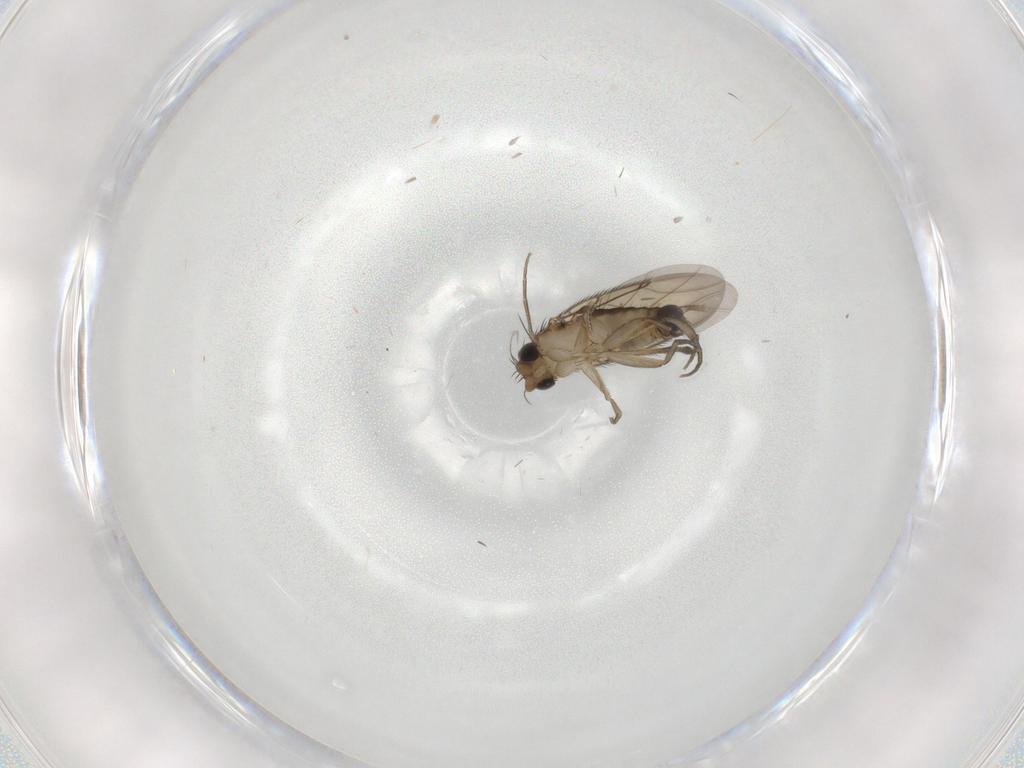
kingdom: Animalia
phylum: Arthropoda
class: Insecta
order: Diptera
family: Phoridae
